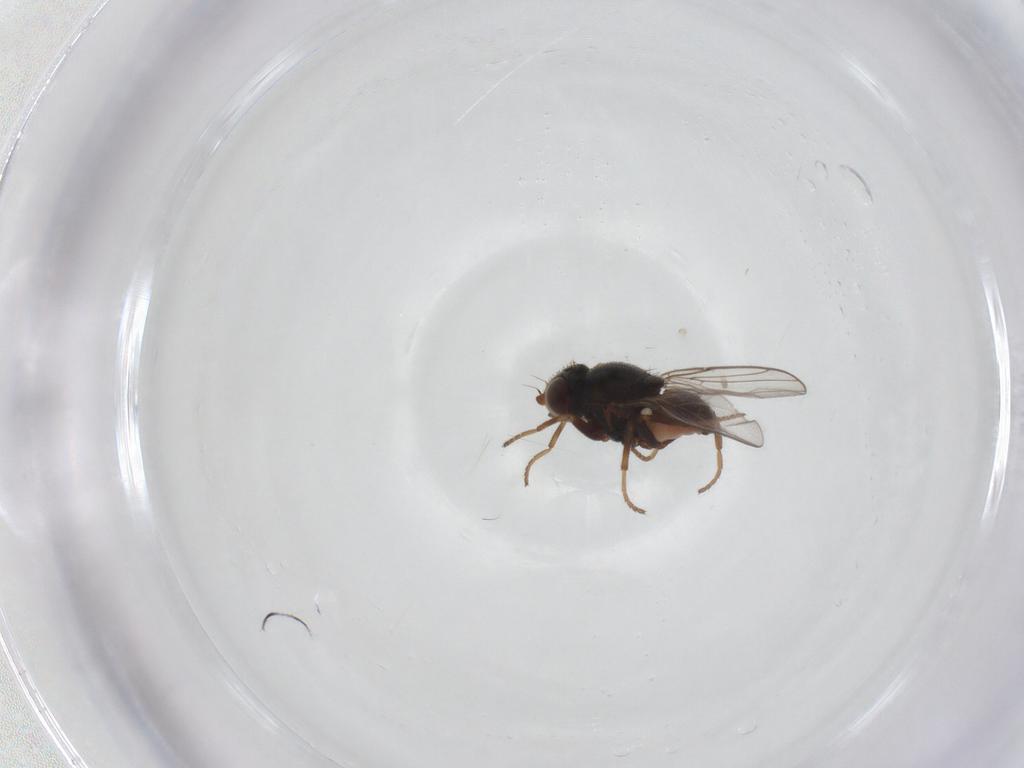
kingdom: Animalia
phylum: Arthropoda
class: Insecta
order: Diptera
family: Chloropidae
